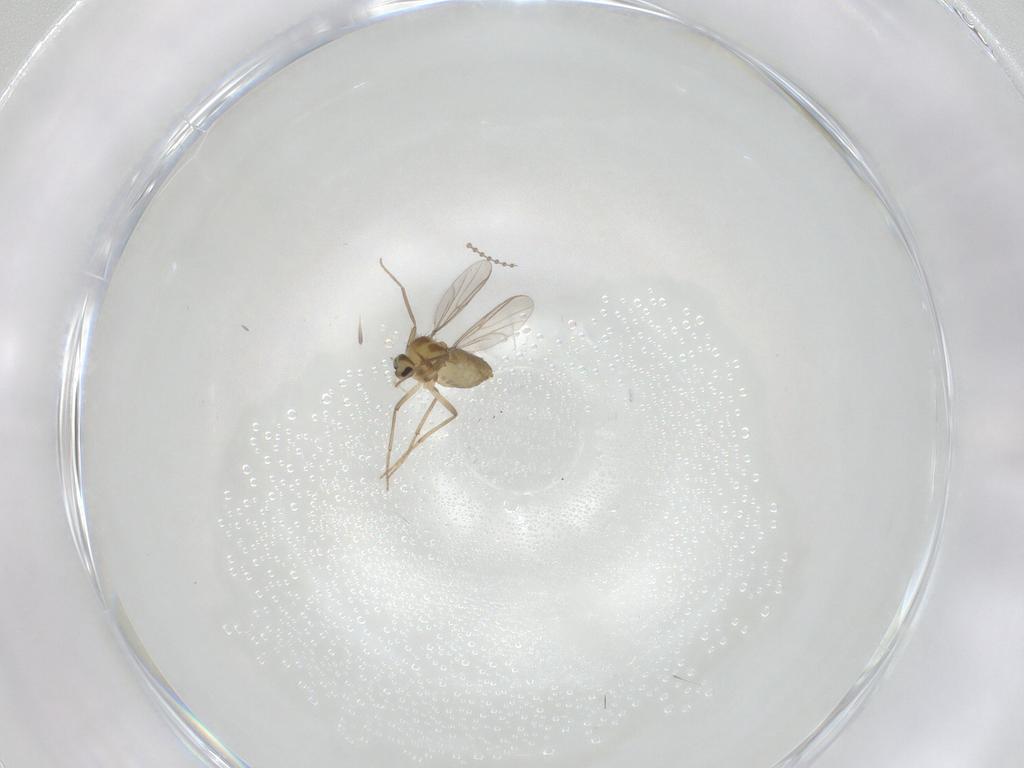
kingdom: Animalia
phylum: Arthropoda
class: Insecta
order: Diptera
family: Chironomidae
